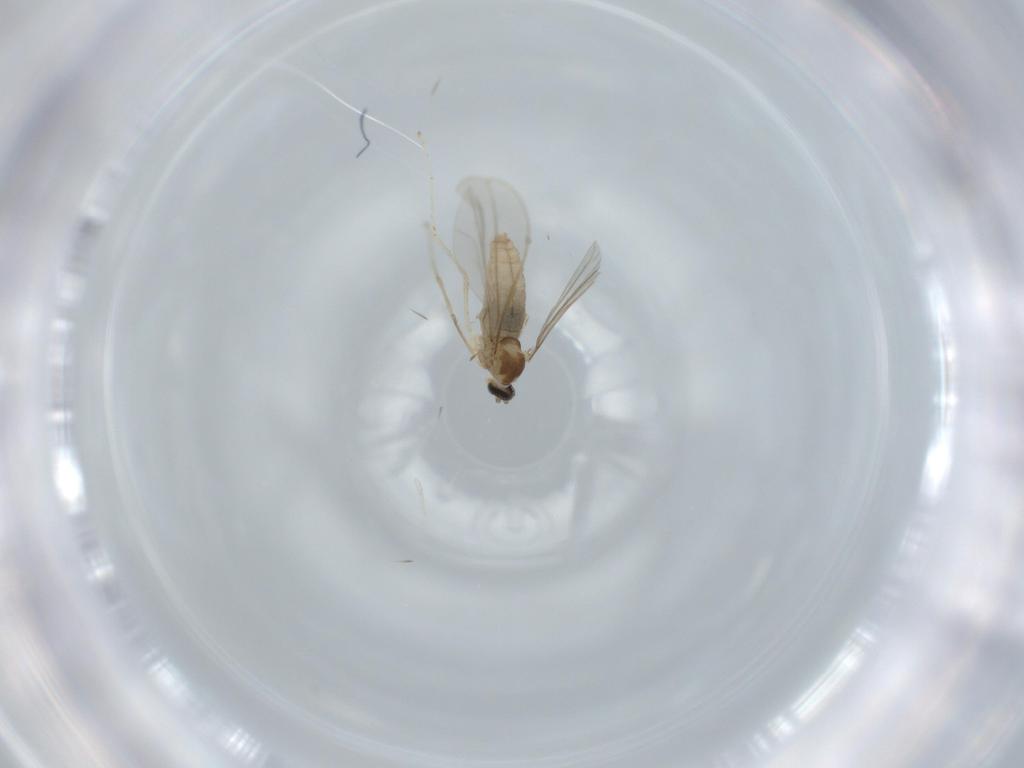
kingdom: Animalia
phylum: Arthropoda
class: Insecta
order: Diptera
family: Cecidomyiidae
